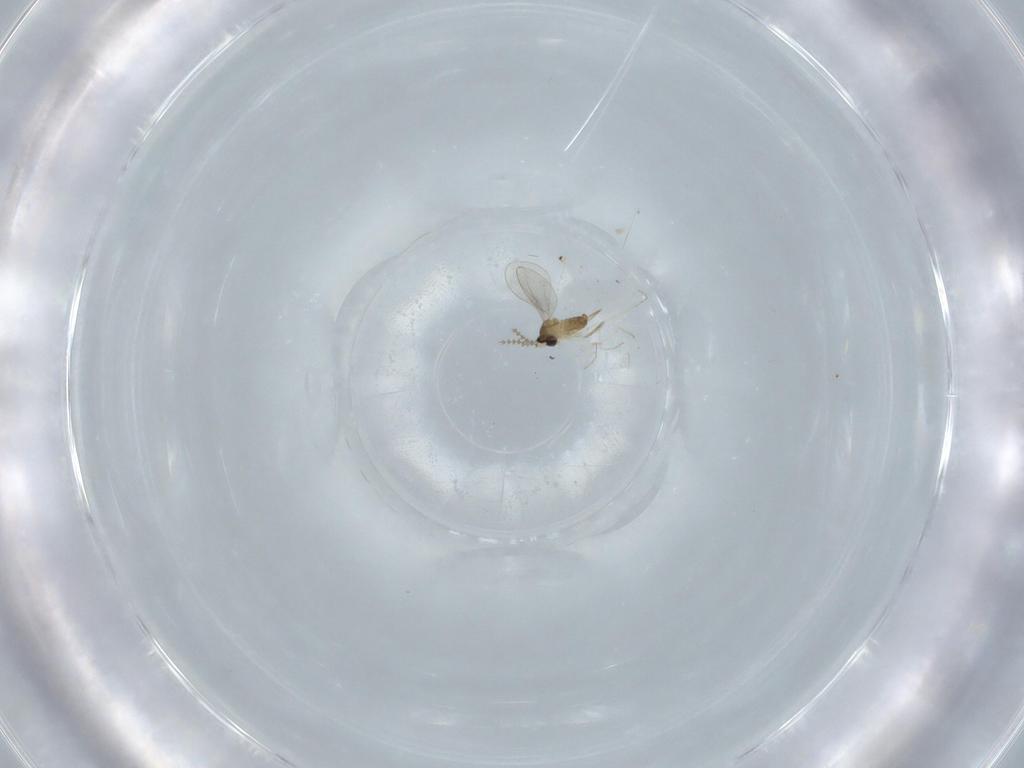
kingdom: Animalia
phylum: Arthropoda
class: Insecta
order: Diptera
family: Cecidomyiidae
